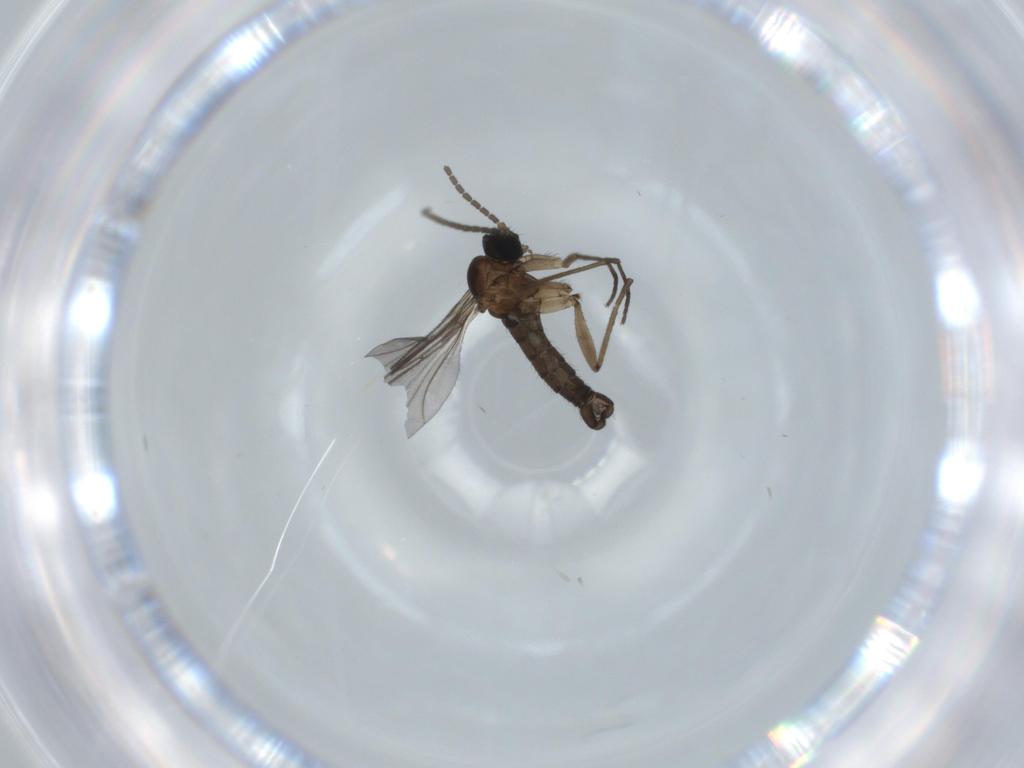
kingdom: Animalia
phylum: Arthropoda
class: Insecta
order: Diptera
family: Sciaridae
